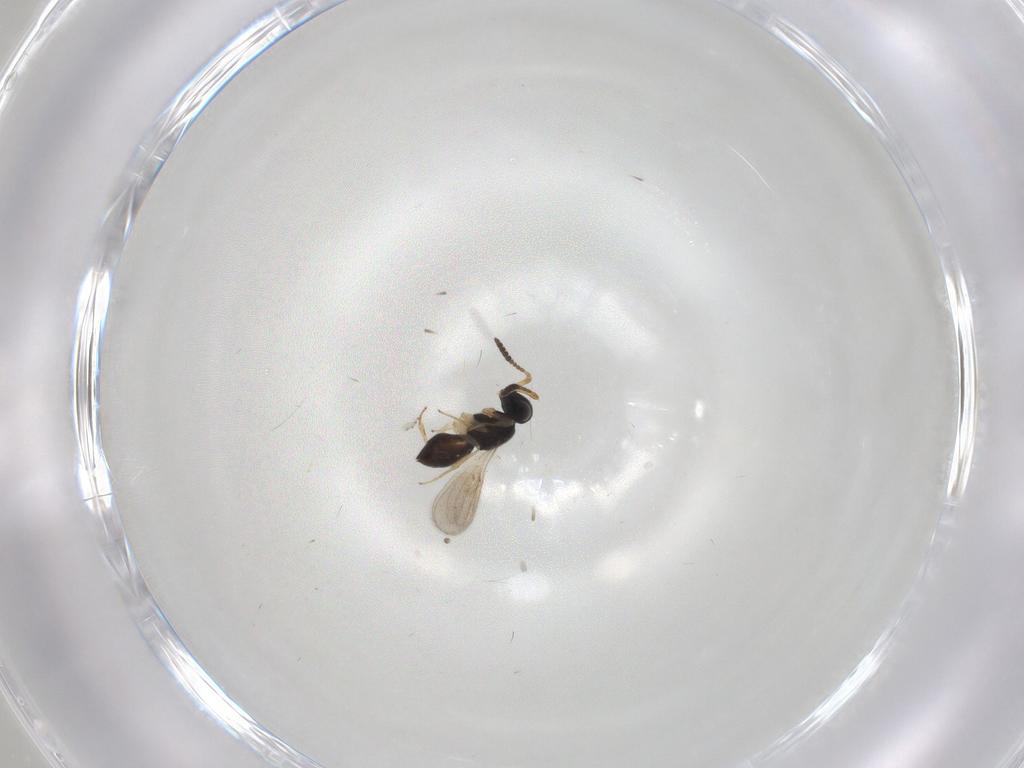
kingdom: Animalia
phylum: Arthropoda
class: Insecta
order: Hymenoptera
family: Scelionidae
